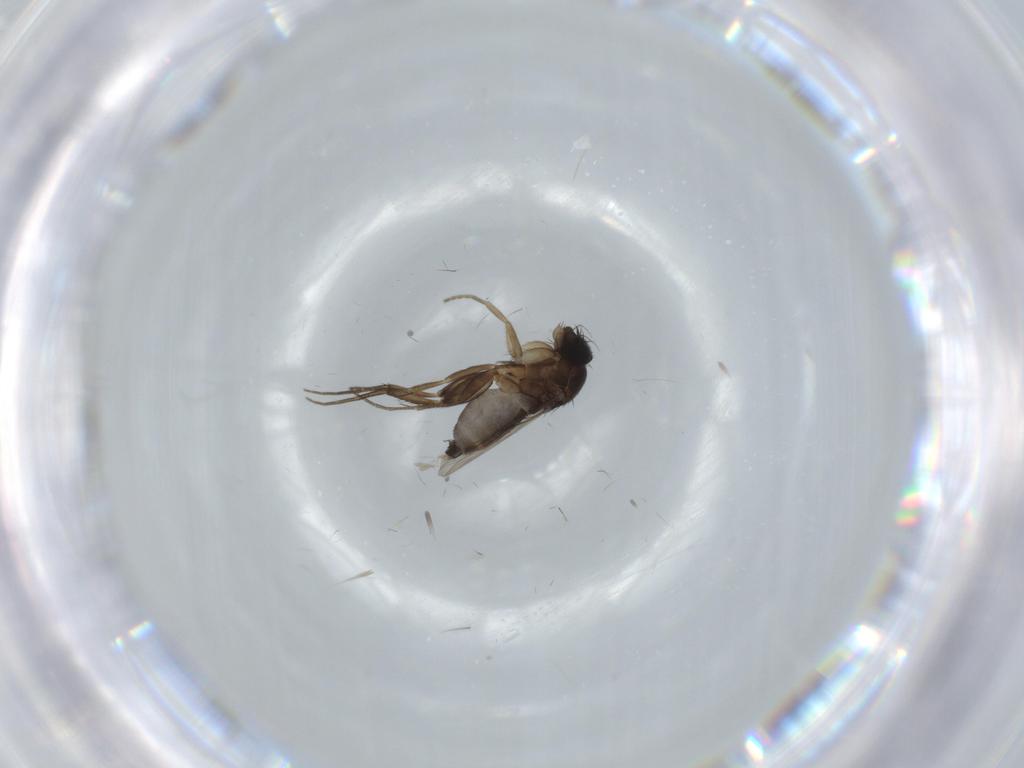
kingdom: Animalia
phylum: Arthropoda
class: Insecta
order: Diptera
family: Phoridae
